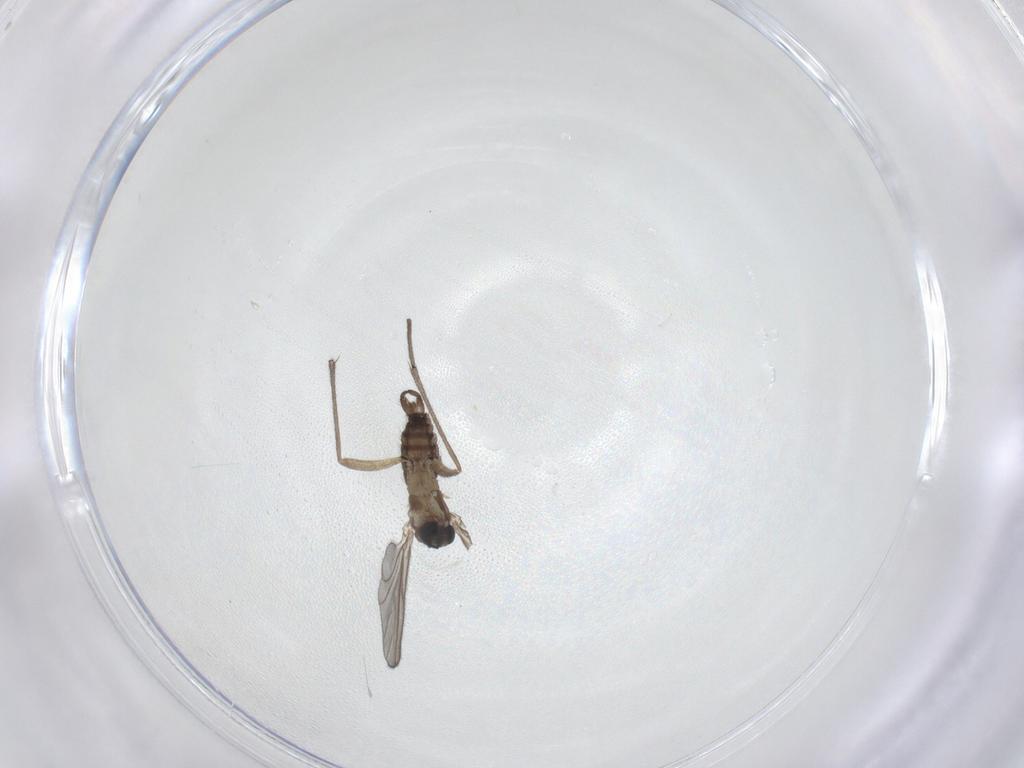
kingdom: Animalia
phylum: Arthropoda
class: Insecta
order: Diptera
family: Sciaridae
